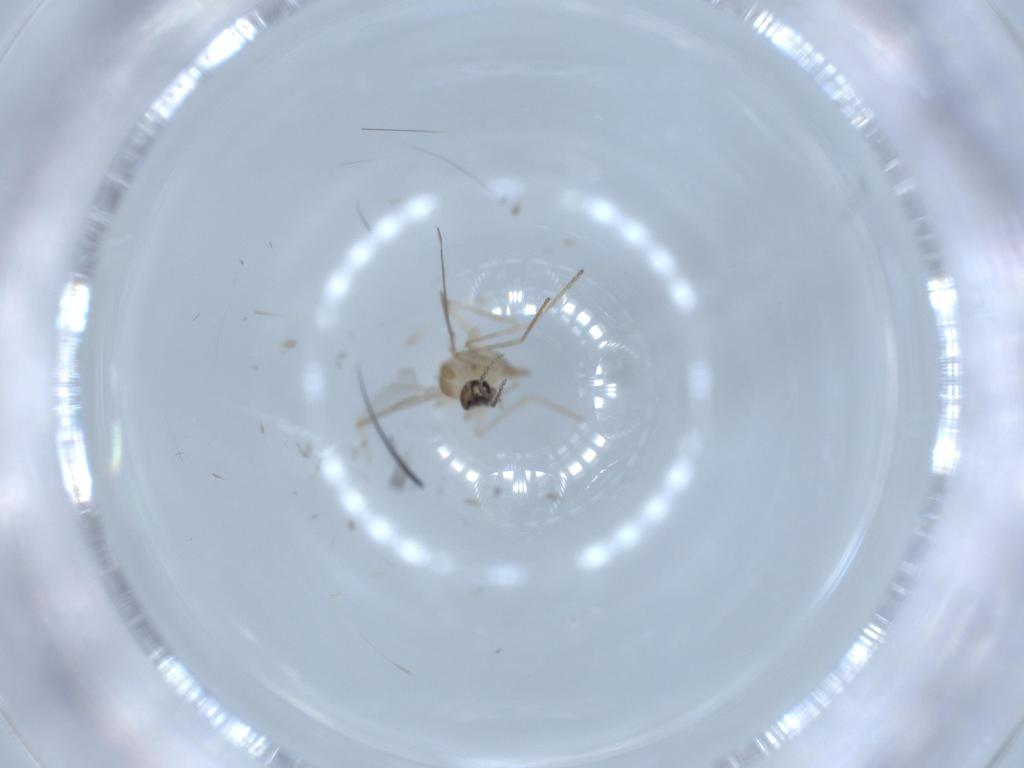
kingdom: Animalia
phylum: Arthropoda
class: Insecta
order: Diptera
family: Cecidomyiidae
